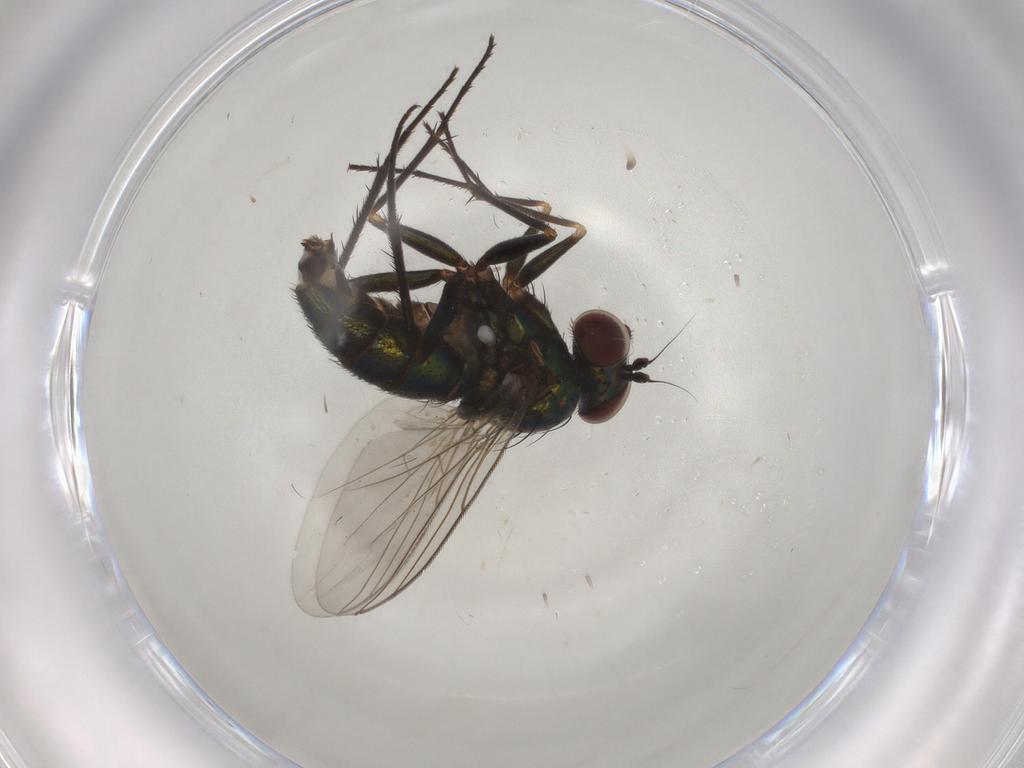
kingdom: Animalia
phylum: Arthropoda
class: Insecta
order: Diptera
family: Dolichopodidae
